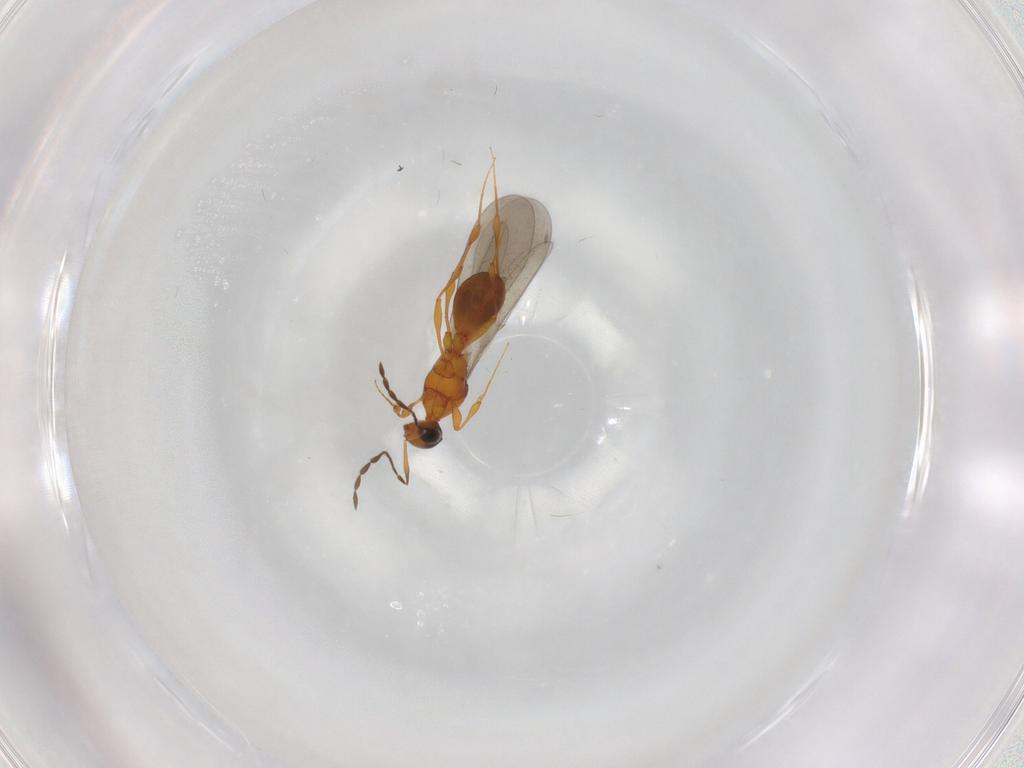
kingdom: Animalia
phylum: Arthropoda
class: Insecta
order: Hymenoptera
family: Platygastridae
